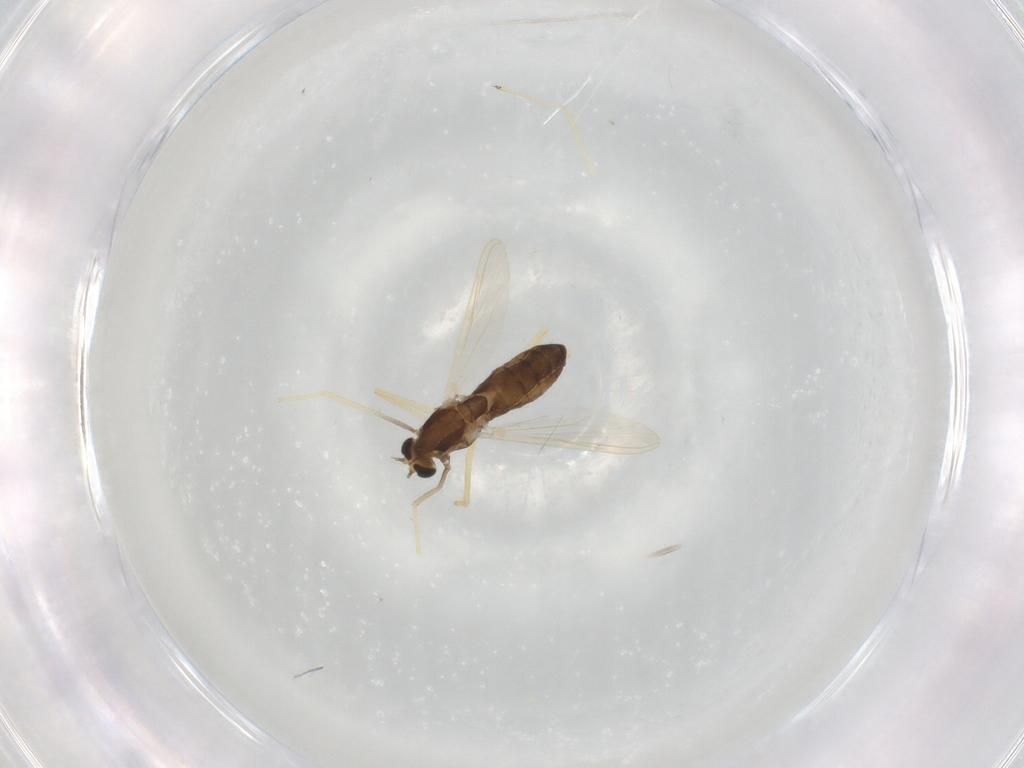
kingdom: Animalia
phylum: Arthropoda
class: Insecta
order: Diptera
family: Chironomidae
